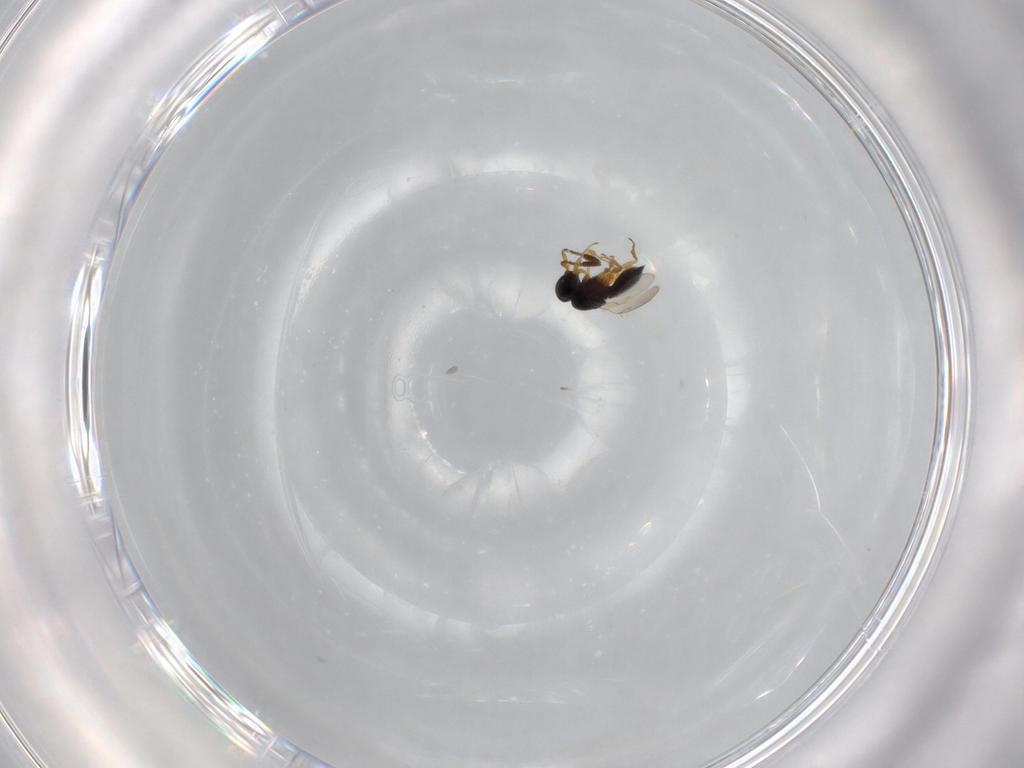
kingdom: Animalia
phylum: Arthropoda
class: Insecta
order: Hymenoptera
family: Scelionidae
